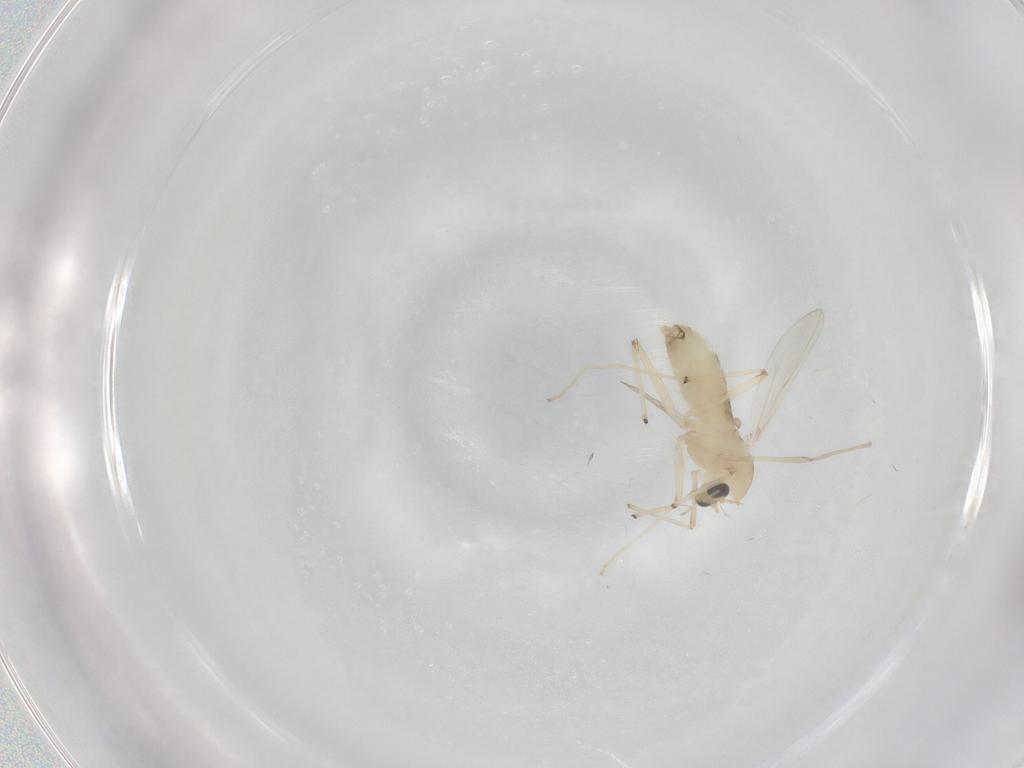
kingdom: Animalia
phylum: Arthropoda
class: Insecta
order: Diptera
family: Chironomidae
